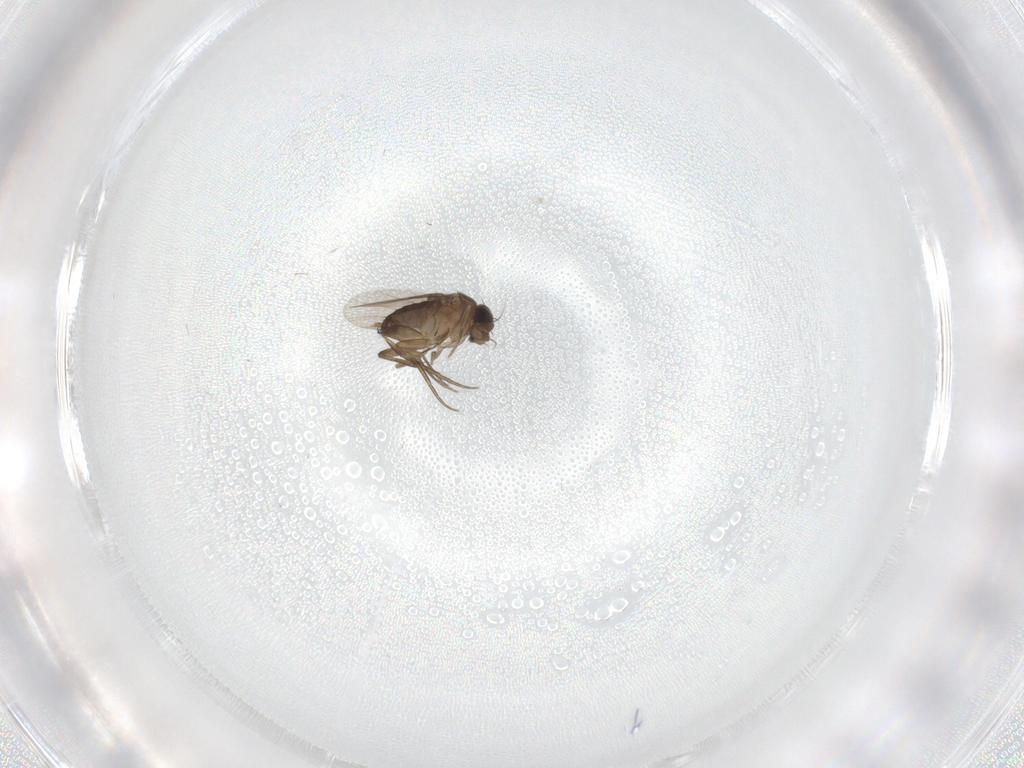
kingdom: Animalia
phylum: Arthropoda
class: Insecta
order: Diptera
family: Phoridae
